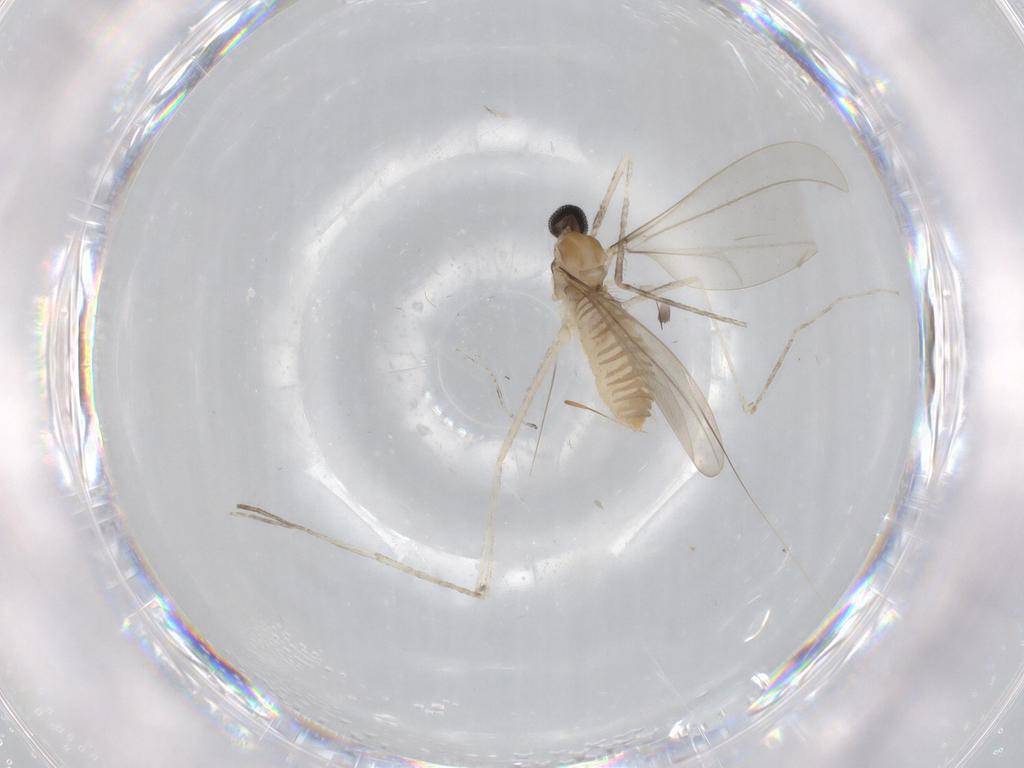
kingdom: Animalia
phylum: Arthropoda
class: Insecta
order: Diptera
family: Cecidomyiidae
